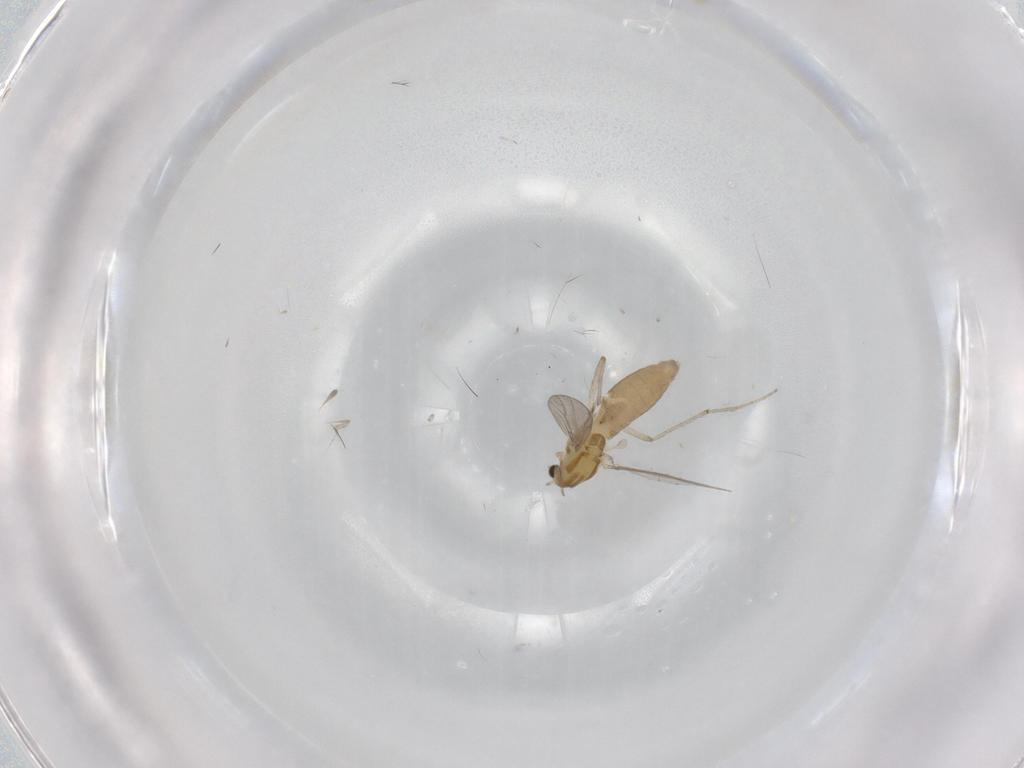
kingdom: Animalia
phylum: Arthropoda
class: Insecta
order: Diptera
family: Chironomidae
